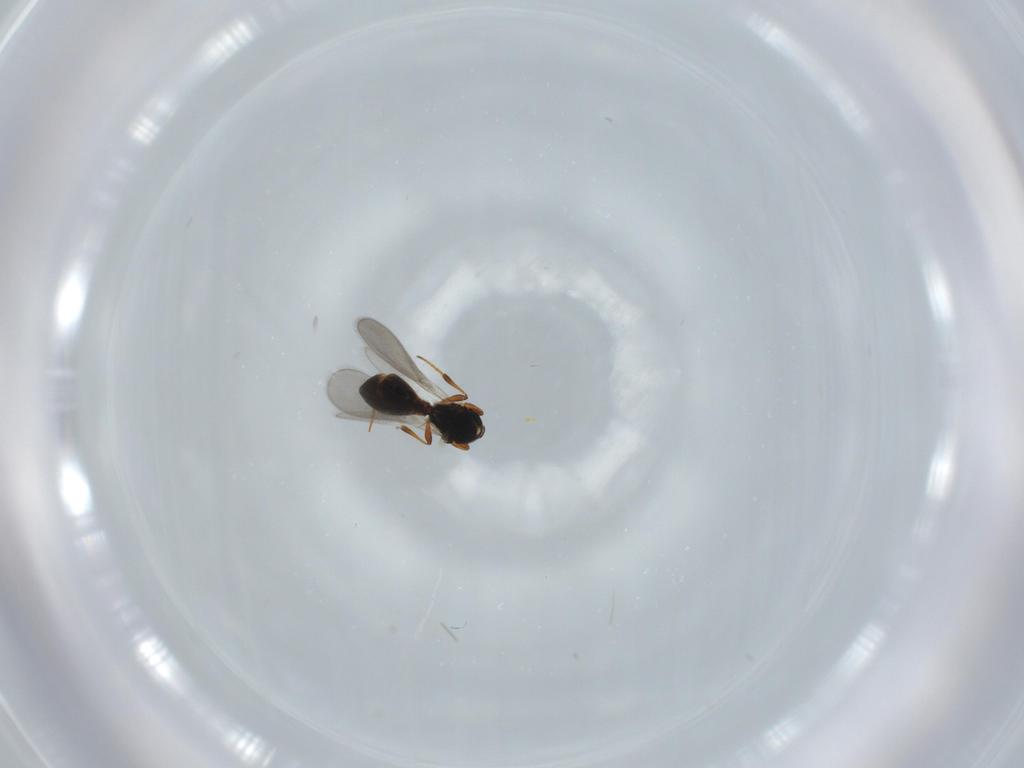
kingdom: Animalia
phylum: Arthropoda
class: Insecta
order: Hymenoptera
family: Platygastridae
